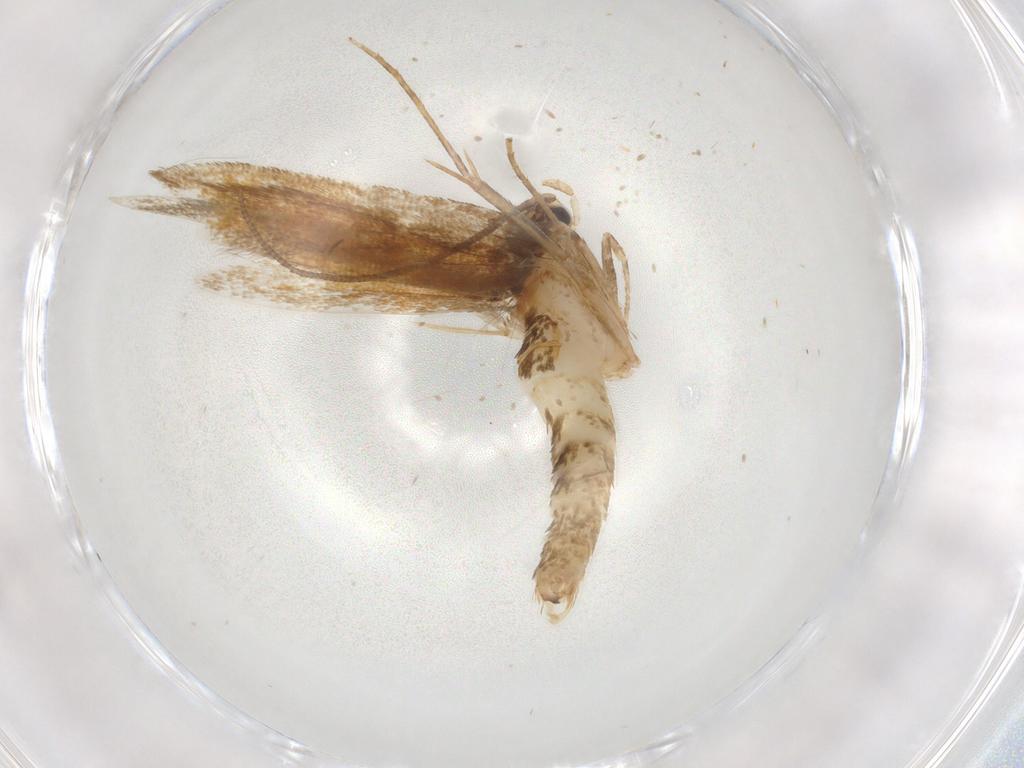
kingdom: Animalia
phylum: Arthropoda
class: Insecta
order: Lepidoptera
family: Tineidae
